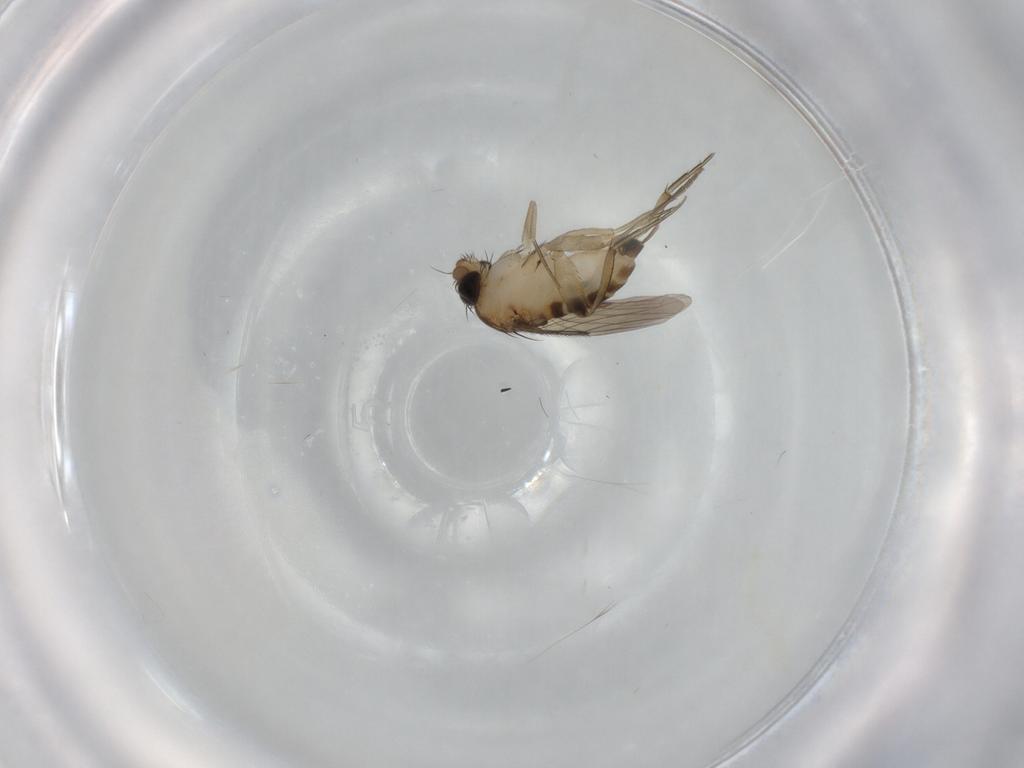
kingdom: Animalia
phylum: Arthropoda
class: Insecta
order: Diptera
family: Phoridae
